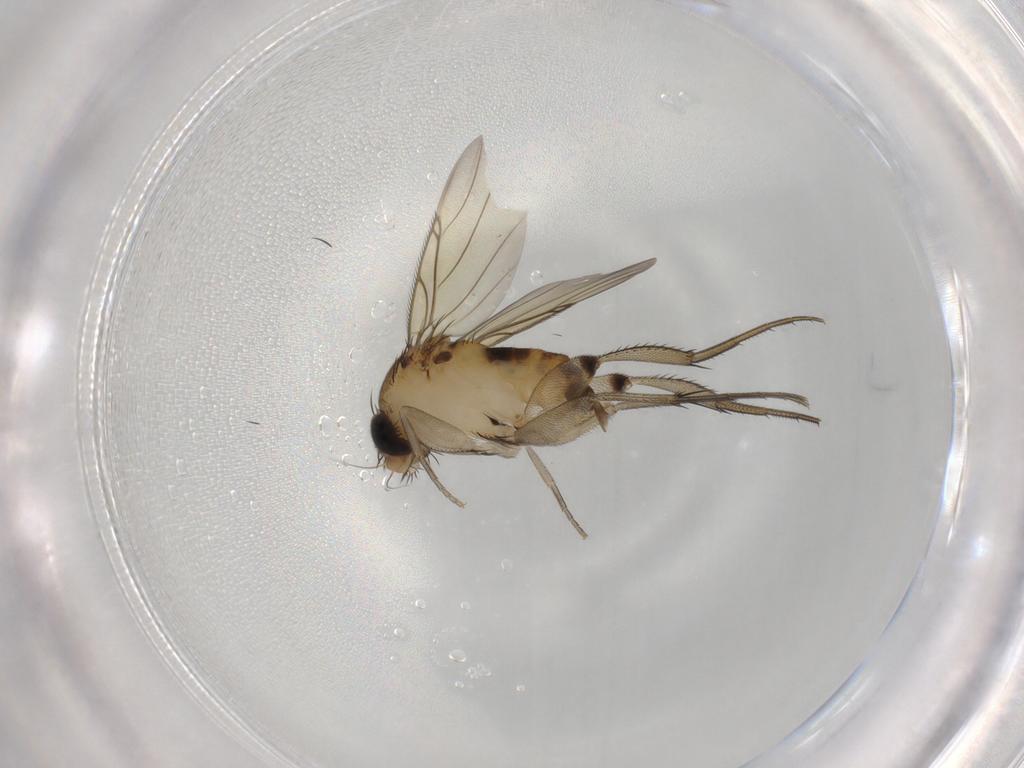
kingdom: Animalia
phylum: Arthropoda
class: Insecta
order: Diptera
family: Phoridae
